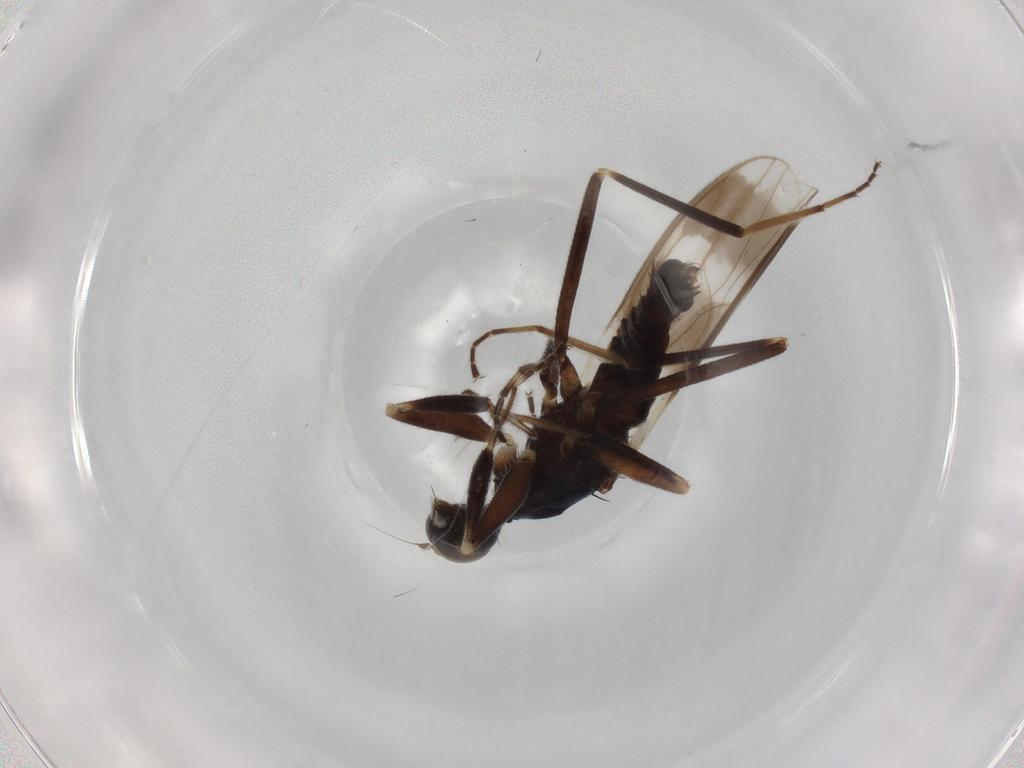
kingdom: Animalia
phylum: Arthropoda
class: Insecta
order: Diptera
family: Hybotidae
